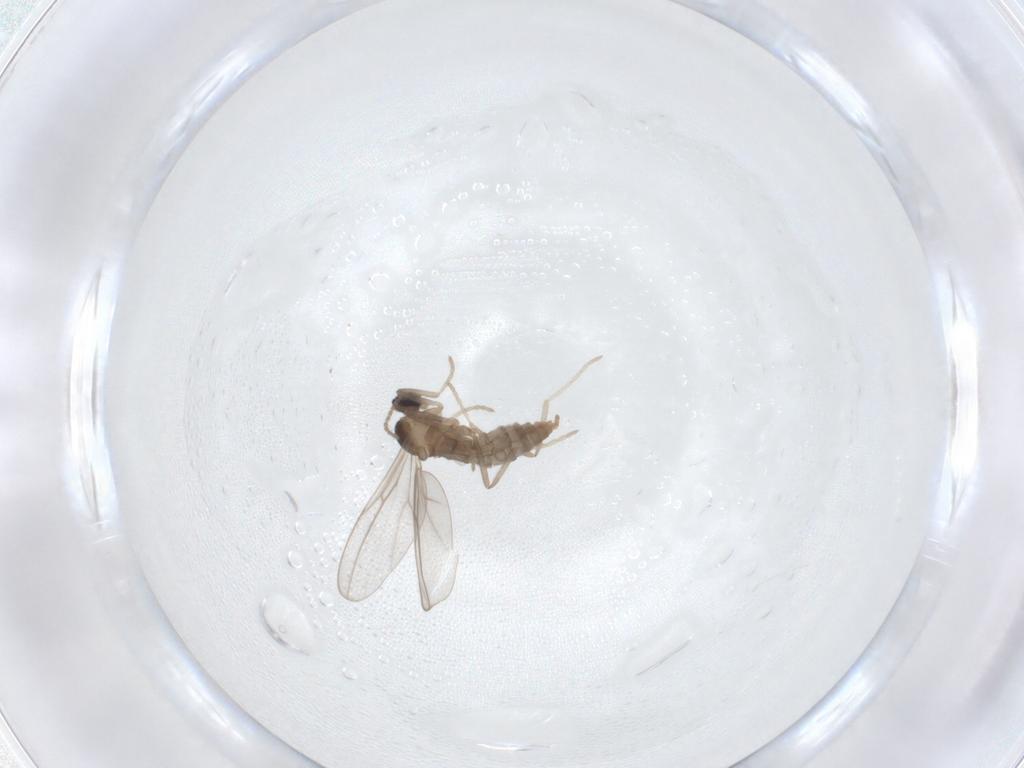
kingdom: Animalia
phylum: Arthropoda
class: Insecta
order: Diptera
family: Cecidomyiidae
